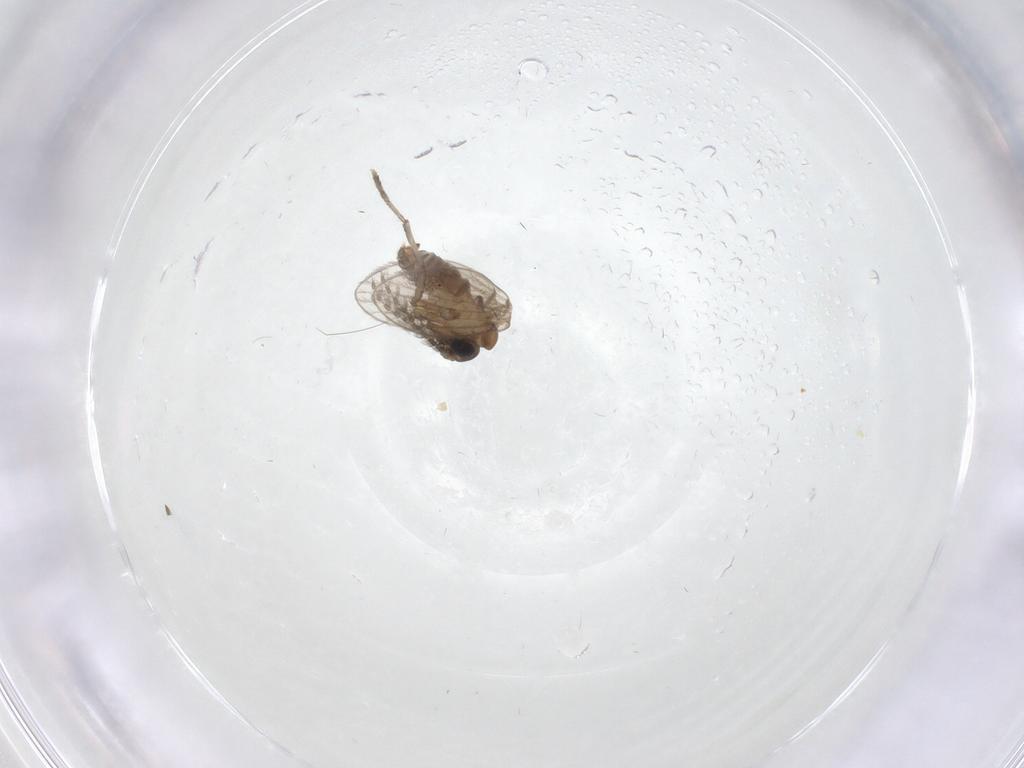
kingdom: Animalia
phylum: Arthropoda
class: Insecta
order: Diptera
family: Psychodidae
